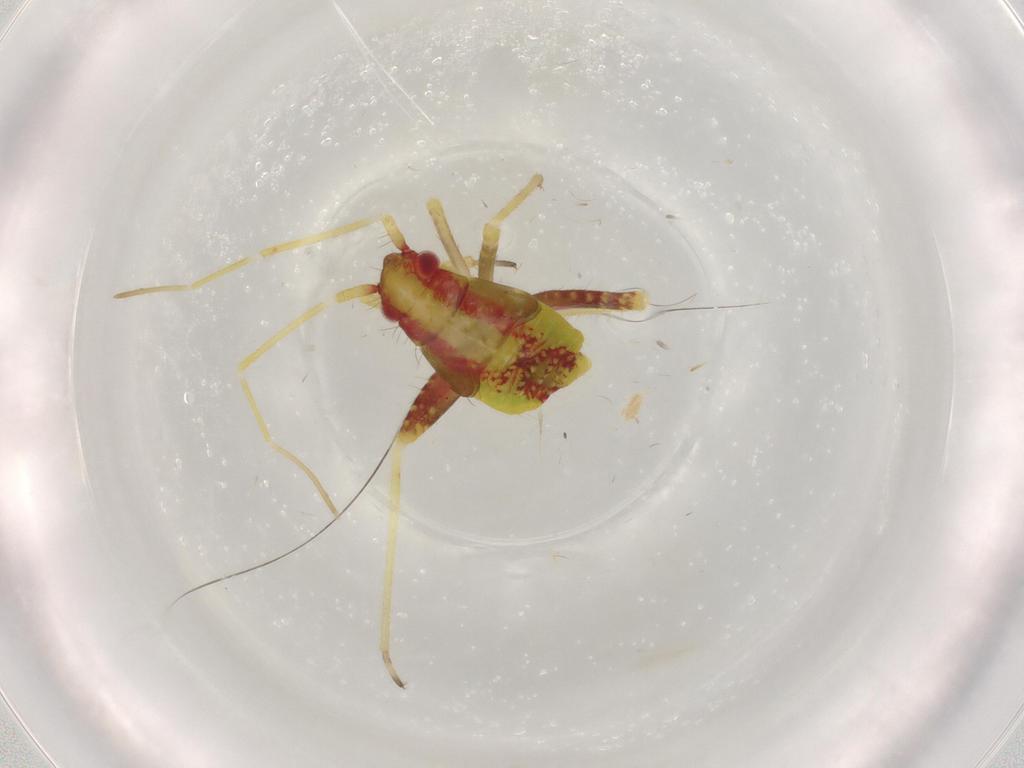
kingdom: Animalia
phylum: Arthropoda
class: Insecta
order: Hemiptera
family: Miridae
